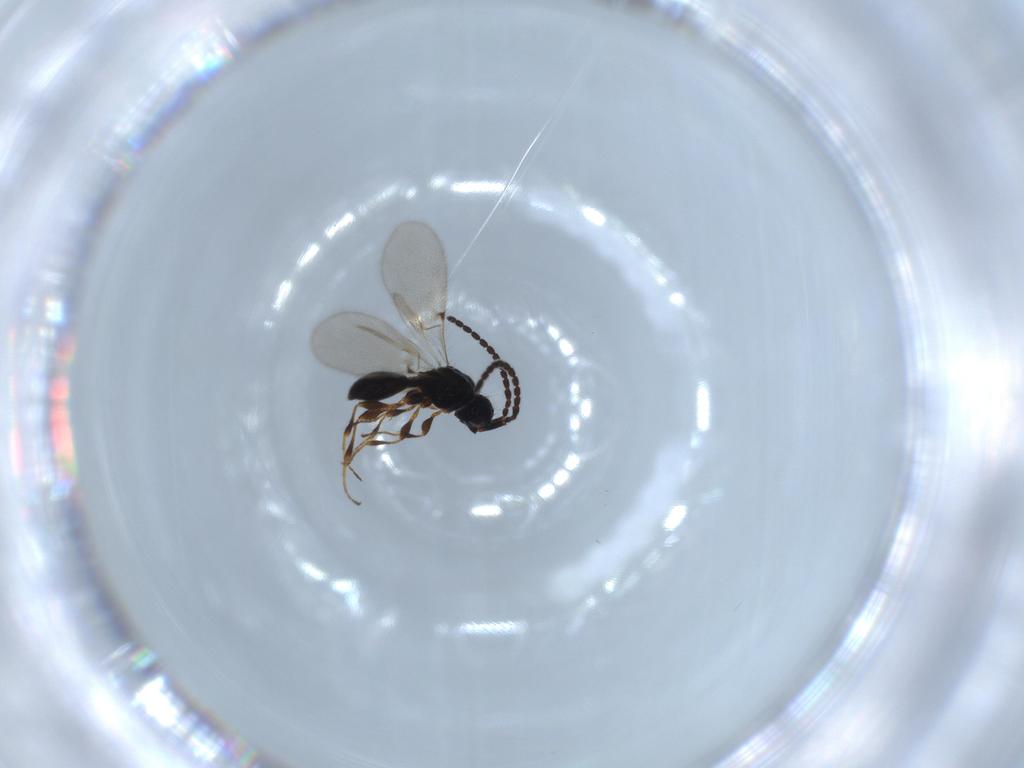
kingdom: Animalia
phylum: Arthropoda
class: Insecta
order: Hymenoptera
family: Diapriidae
